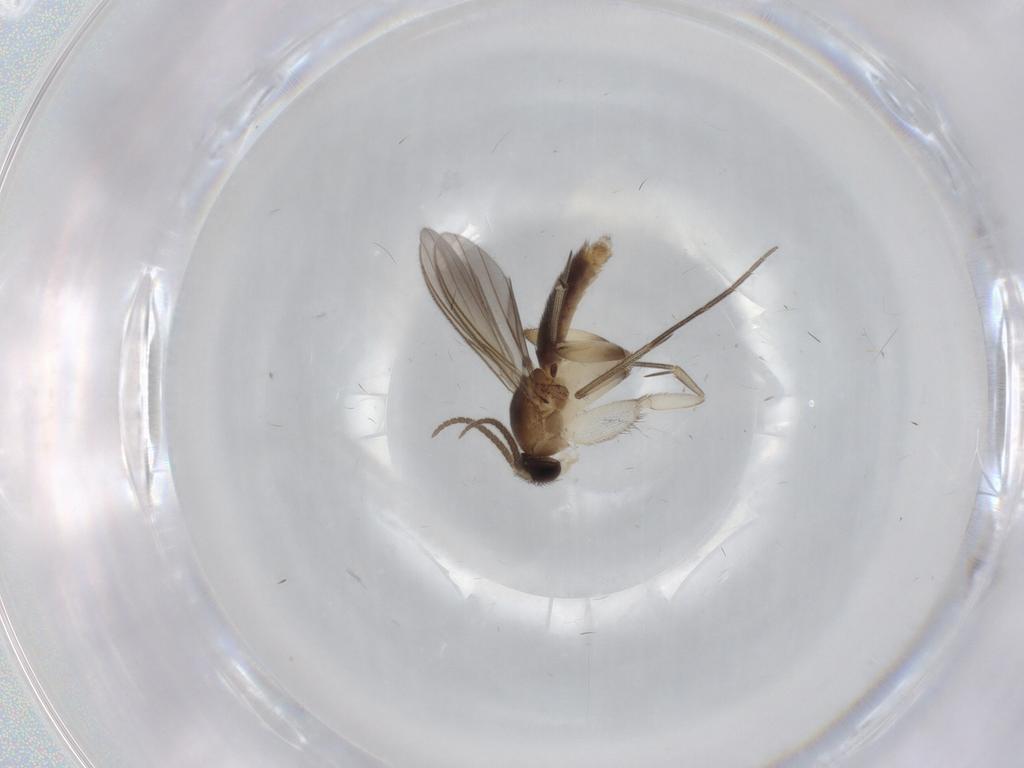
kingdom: Animalia
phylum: Arthropoda
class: Insecta
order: Diptera
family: Mycetophilidae
